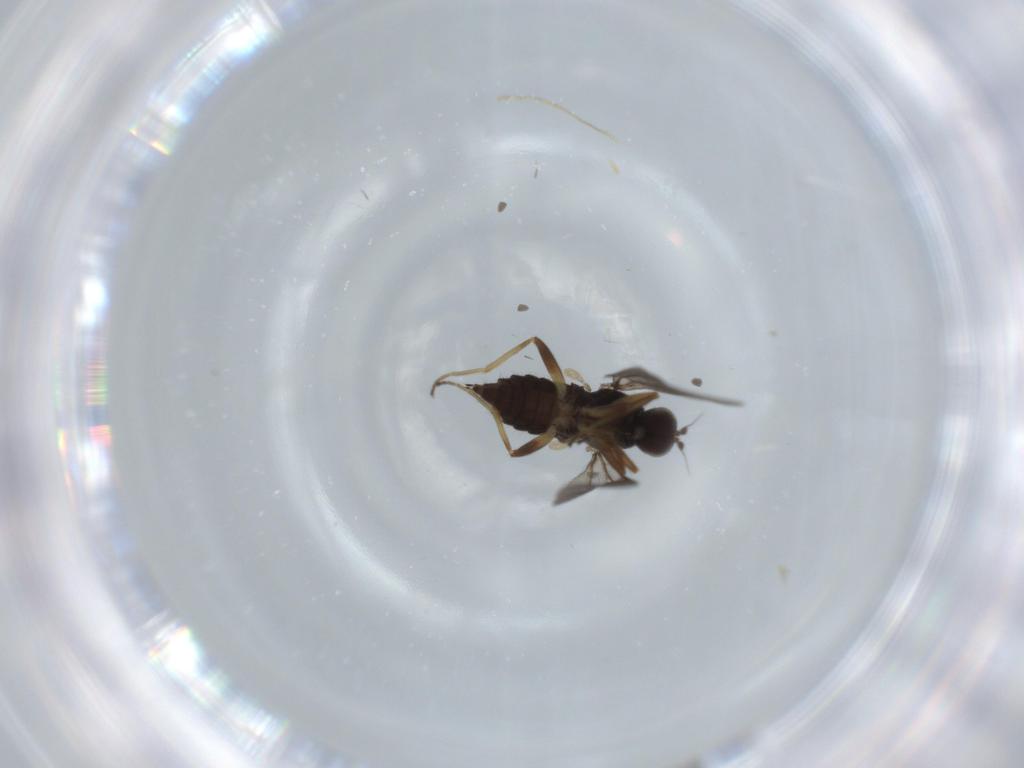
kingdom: Animalia
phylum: Arthropoda
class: Insecta
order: Diptera
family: Hybotidae
